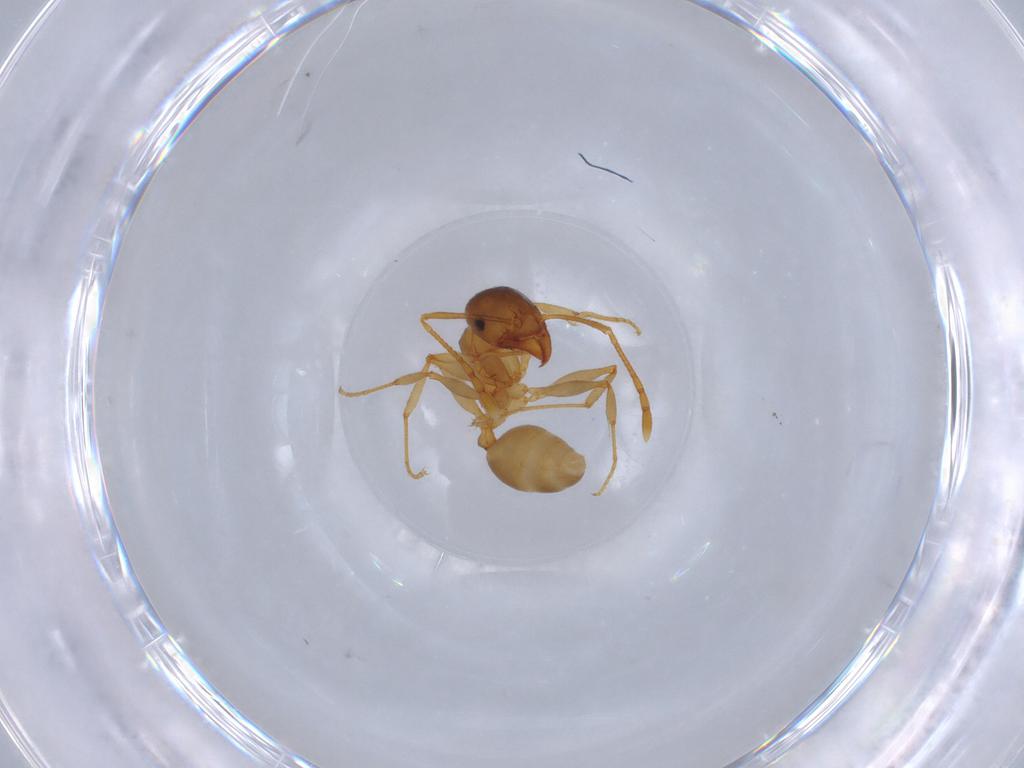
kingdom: Animalia
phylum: Arthropoda
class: Insecta
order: Hymenoptera
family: Formicidae
